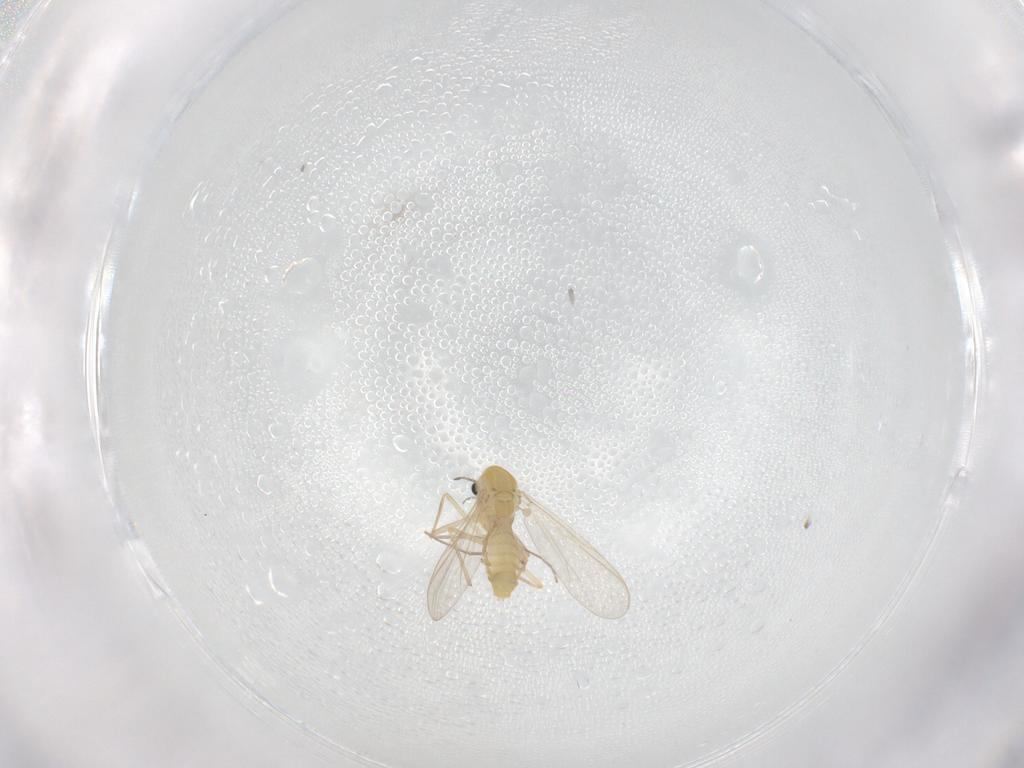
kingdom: Animalia
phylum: Arthropoda
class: Insecta
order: Diptera
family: Chironomidae
